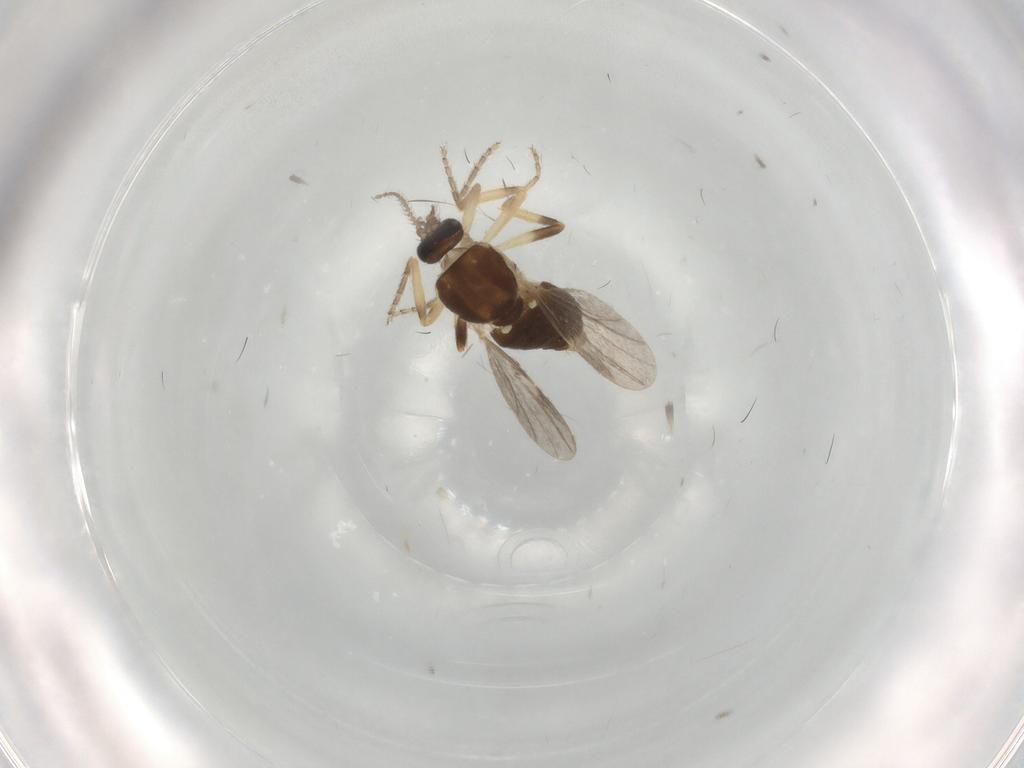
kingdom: Animalia
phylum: Arthropoda
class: Insecta
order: Diptera
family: Ceratopogonidae
